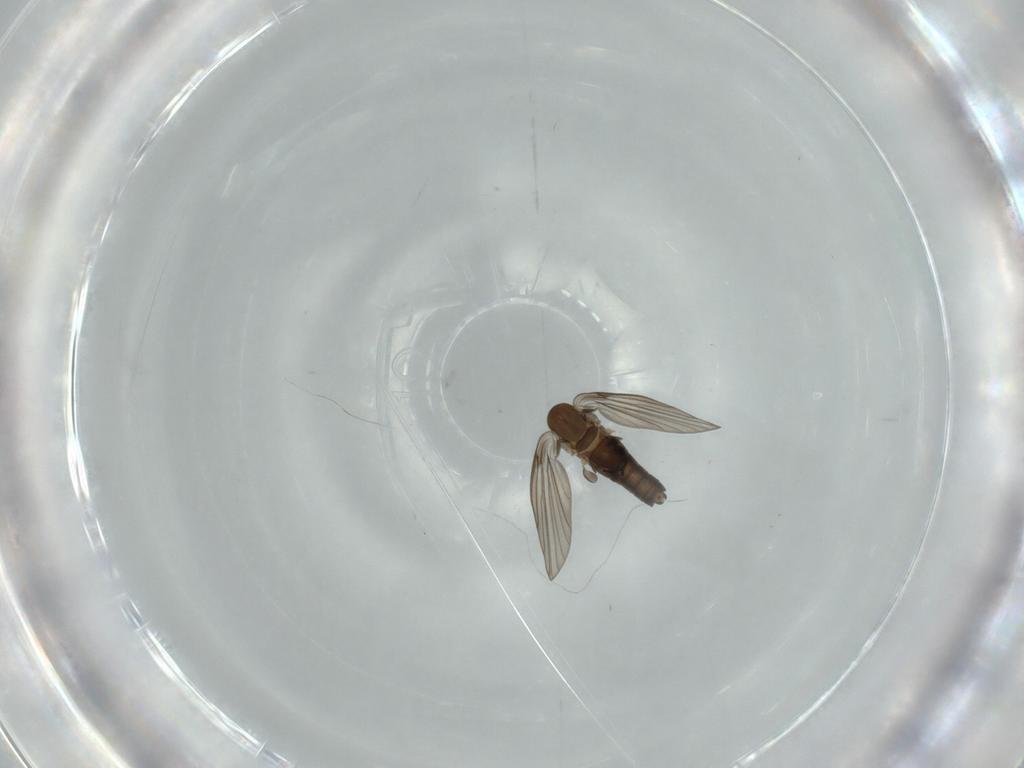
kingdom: Animalia
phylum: Arthropoda
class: Insecta
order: Diptera
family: Psychodidae
